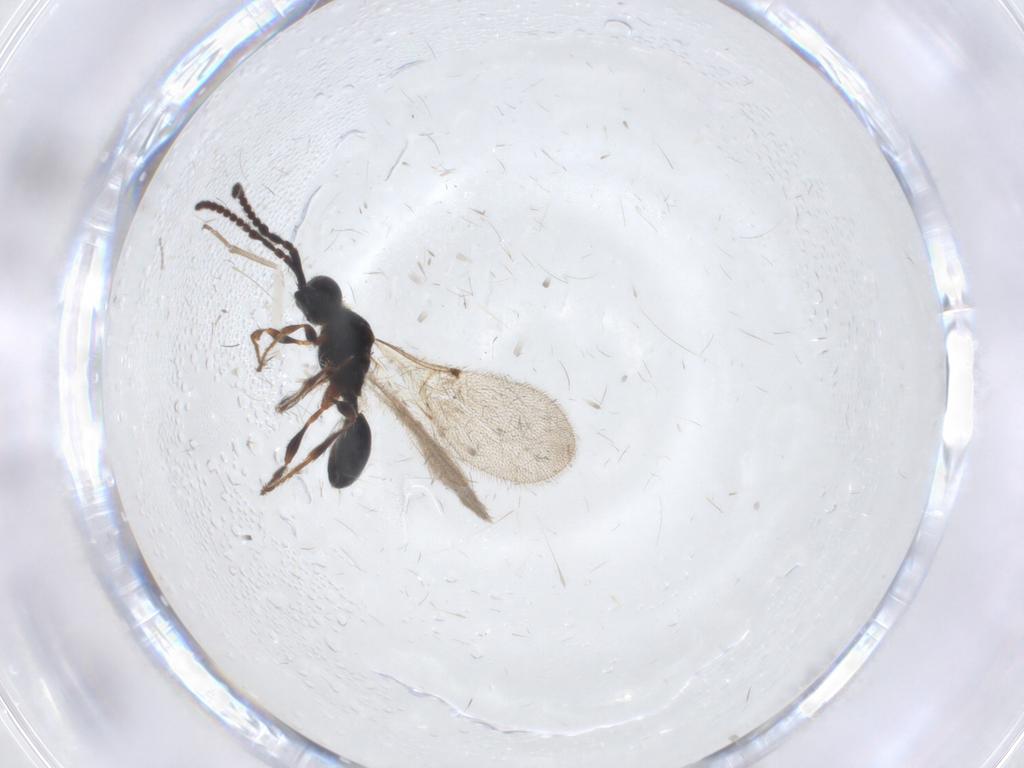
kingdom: Animalia
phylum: Arthropoda
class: Insecta
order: Hymenoptera
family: Diapriidae
